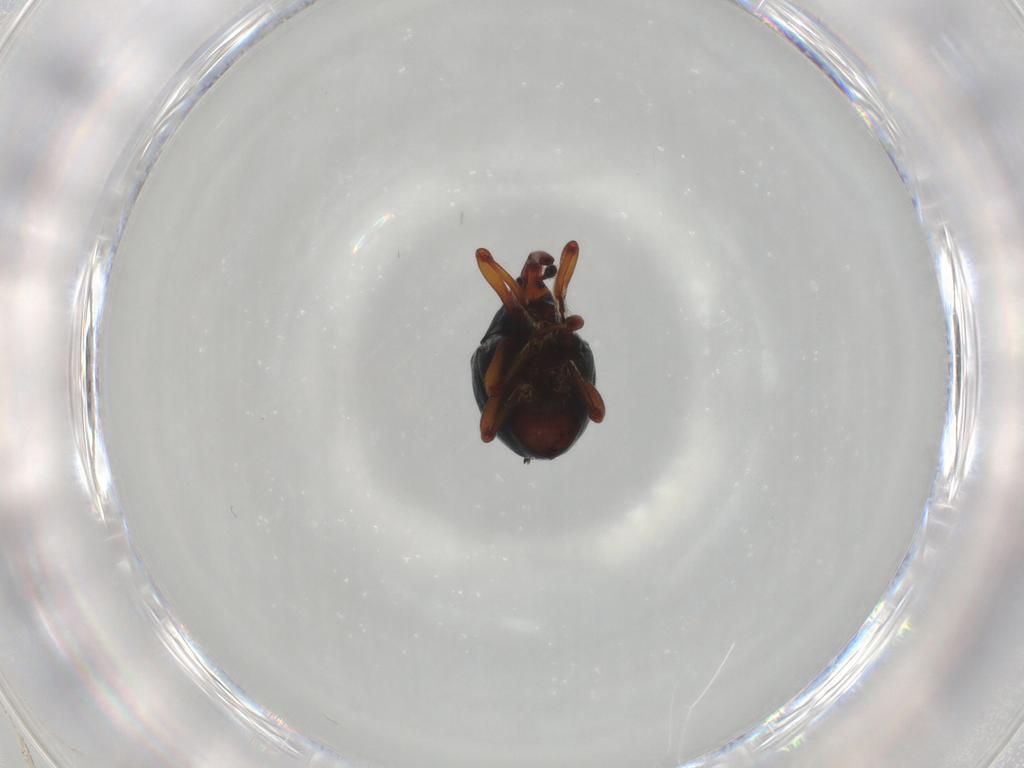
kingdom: Animalia
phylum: Arthropoda
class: Insecta
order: Coleoptera
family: Curculionidae
